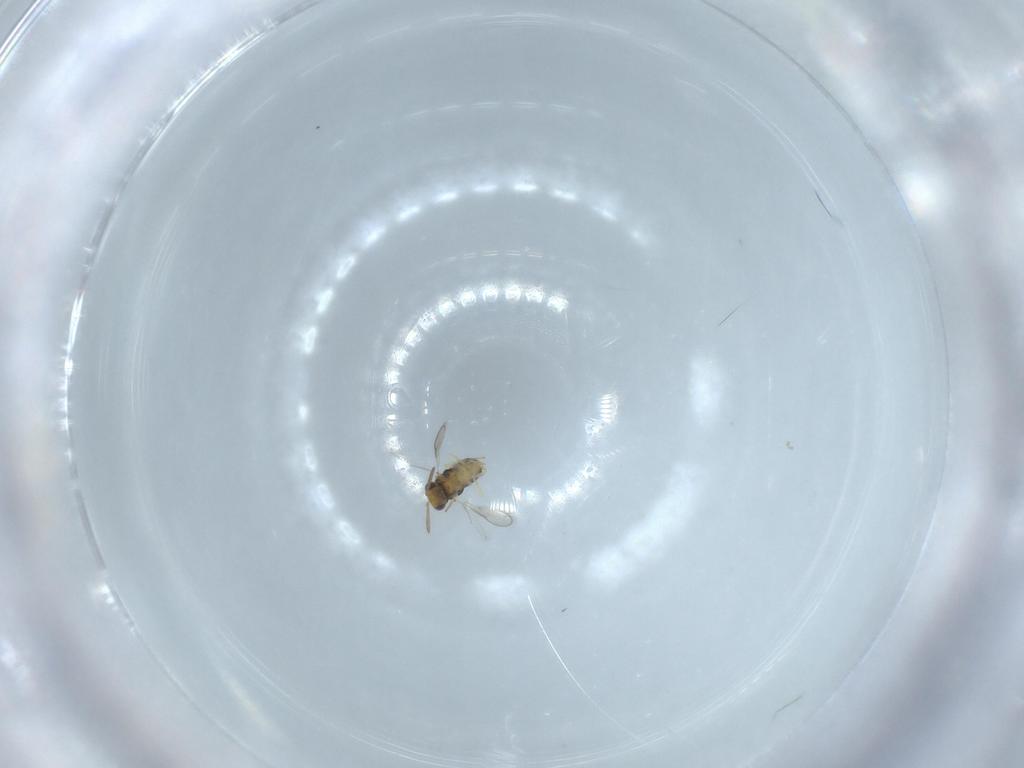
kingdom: Animalia
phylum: Arthropoda
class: Insecta
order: Hymenoptera
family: Aphelinidae
